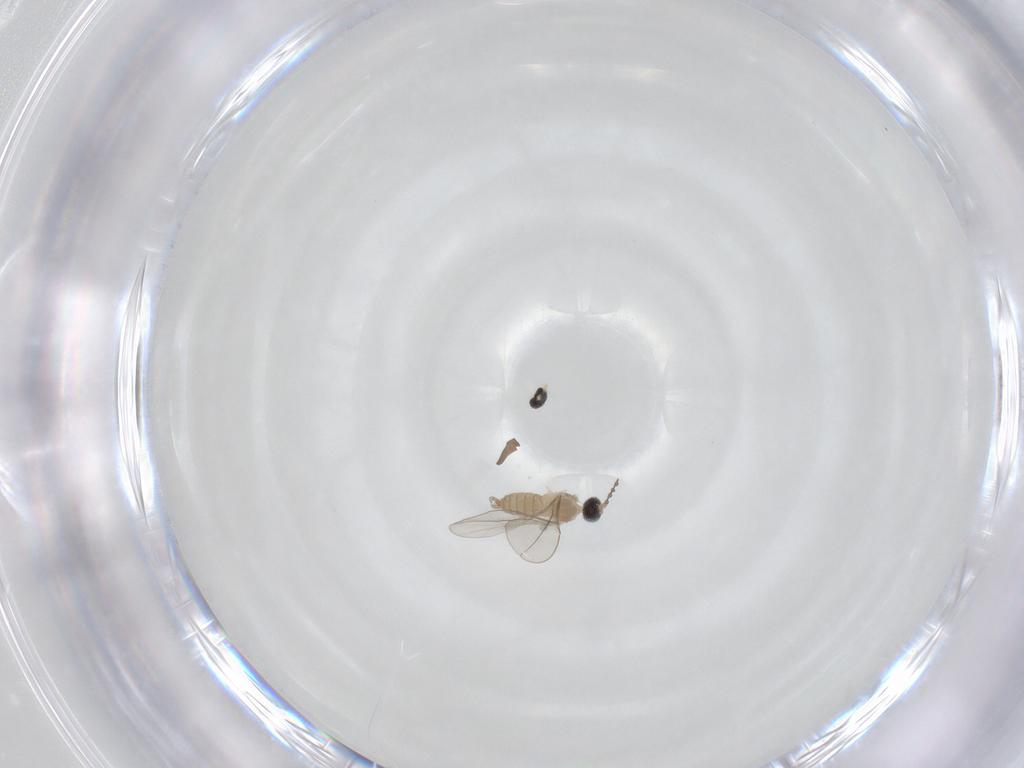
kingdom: Animalia
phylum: Arthropoda
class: Insecta
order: Diptera
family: Cecidomyiidae
